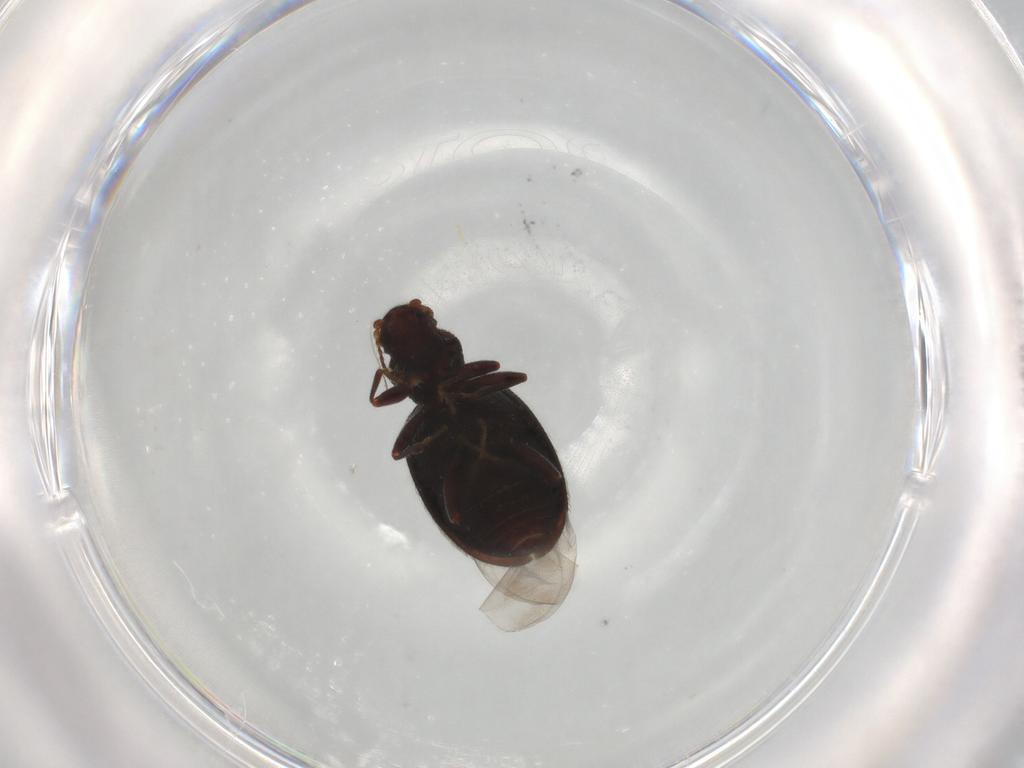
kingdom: Animalia
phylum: Arthropoda
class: Insecta
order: Coleoptera
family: Latridiidae
